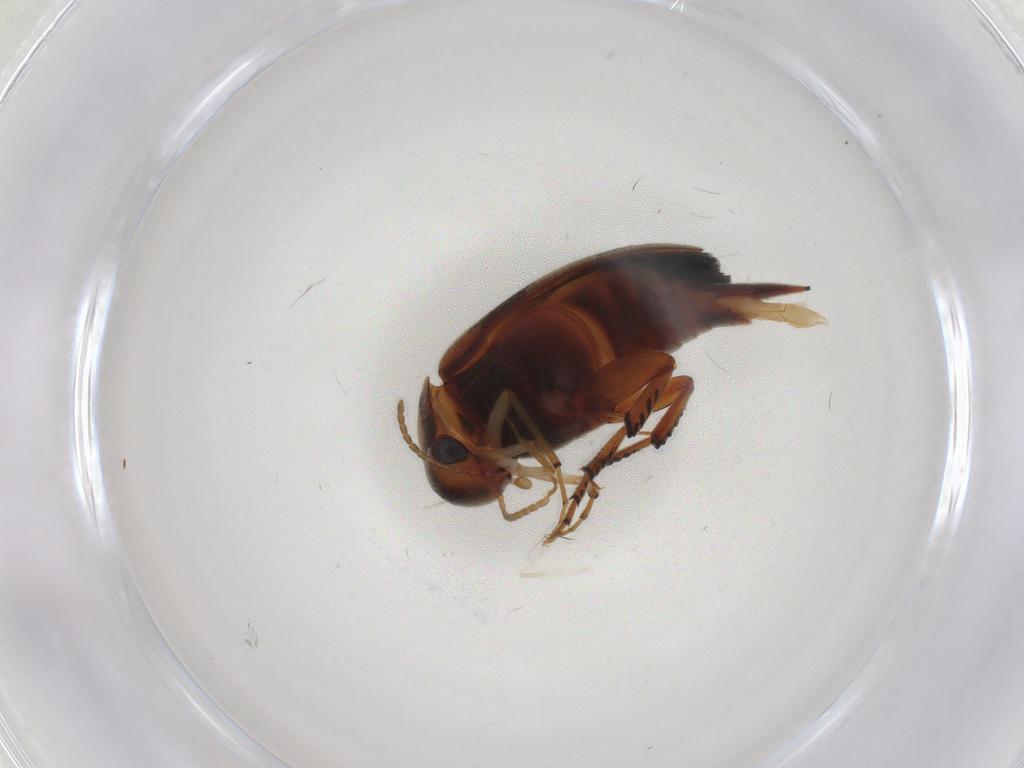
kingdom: Animalia
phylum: Arthropoda
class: Insecta
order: Coleoptera
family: Mordellidae
